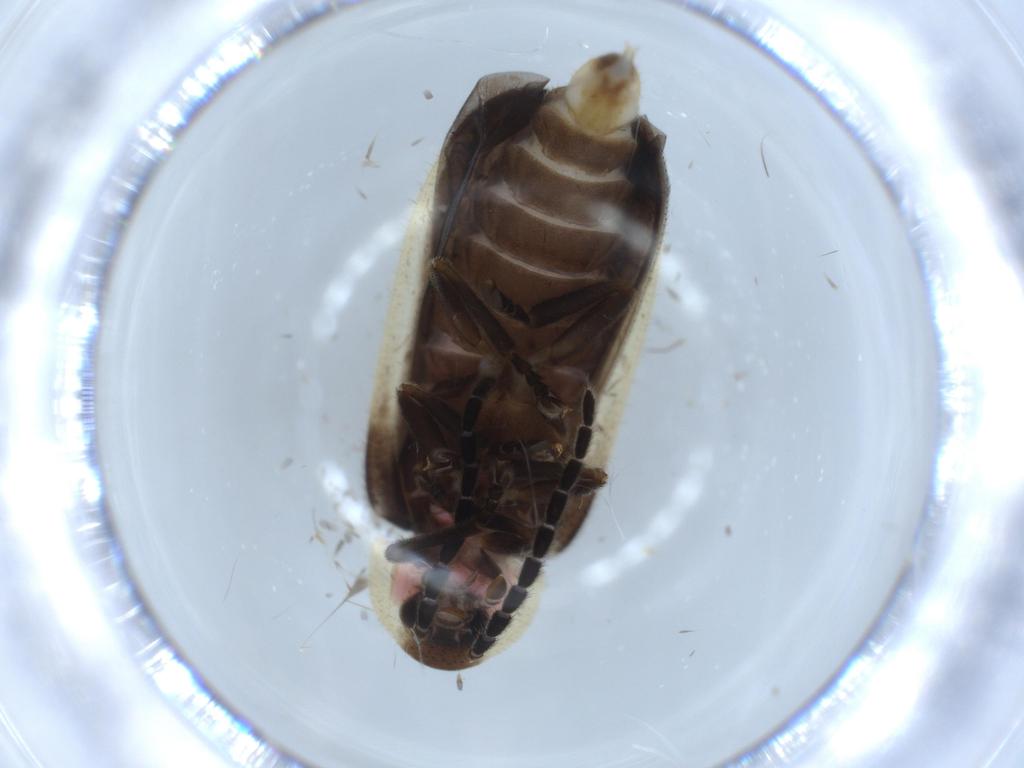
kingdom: Animalia
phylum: Arthropoda
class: Insecta
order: Coleoptera
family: Lampyridae
